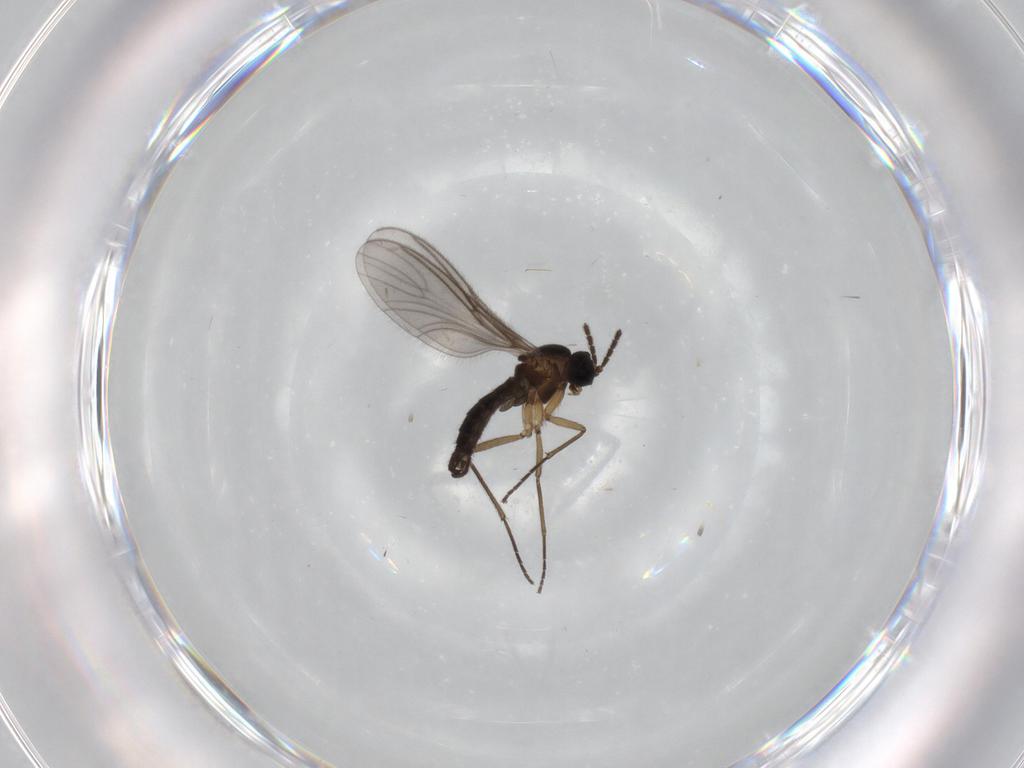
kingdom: Animalia
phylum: Arthropoda
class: Insecta
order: Diptera
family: Sciaridae
